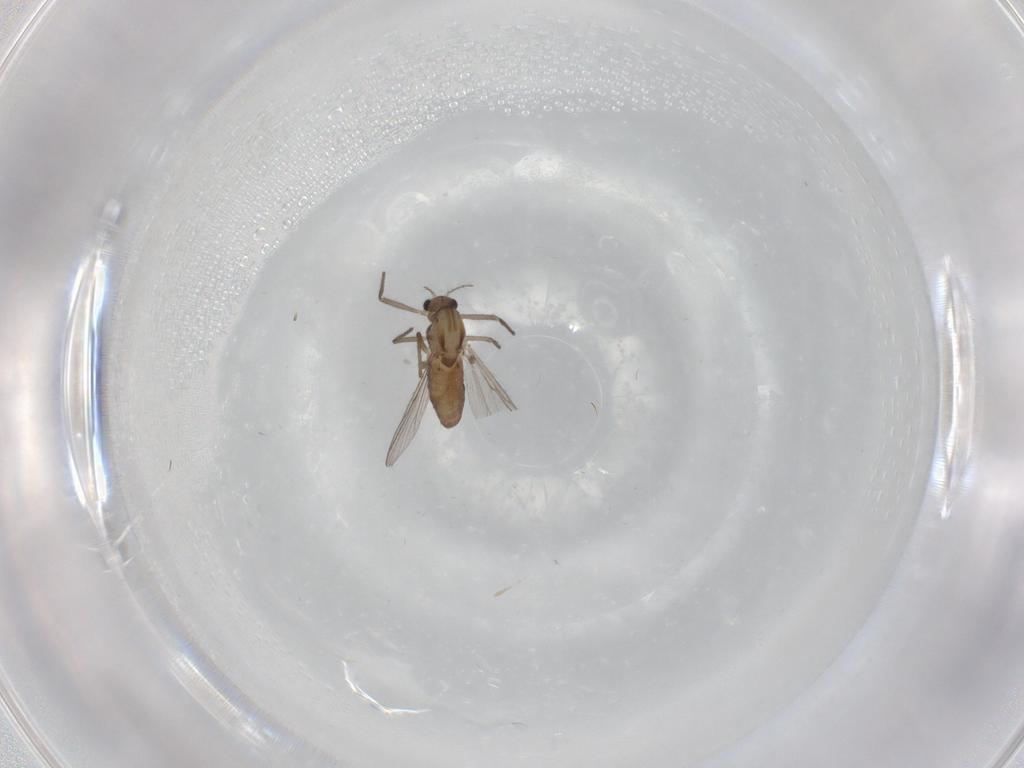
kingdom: Animalia
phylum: Arthropoda
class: Insecta
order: Diptera
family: Chironomidae
